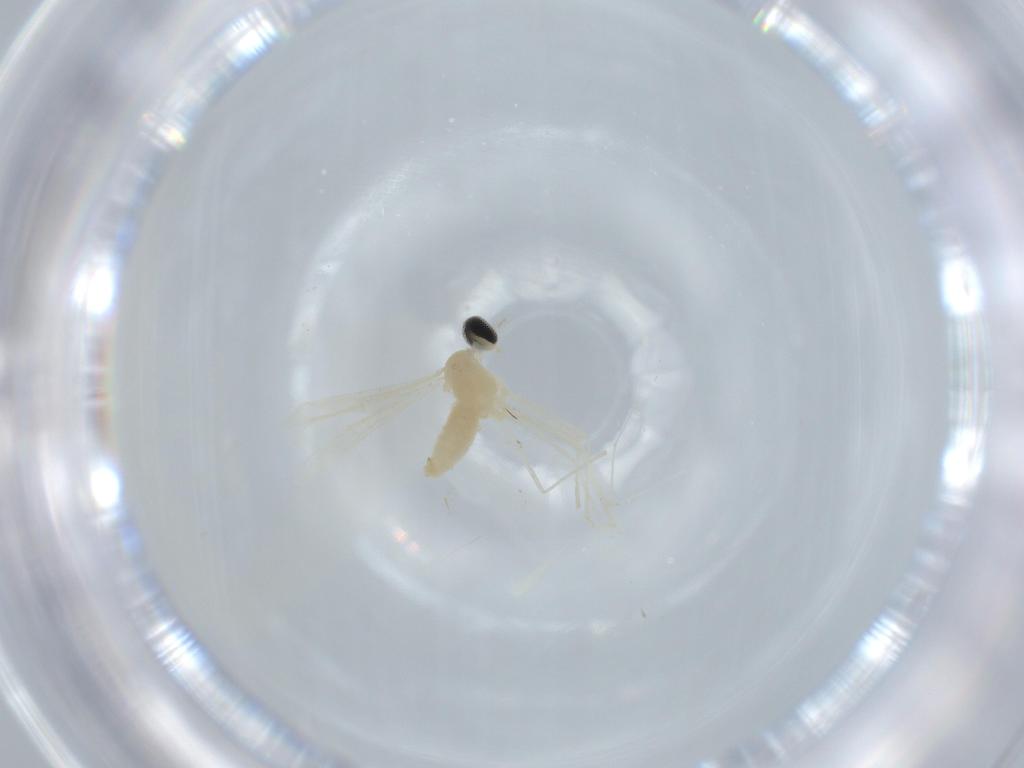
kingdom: Animalia
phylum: Arthropoda
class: Insecta
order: Diptera
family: Cecidomyiidae
